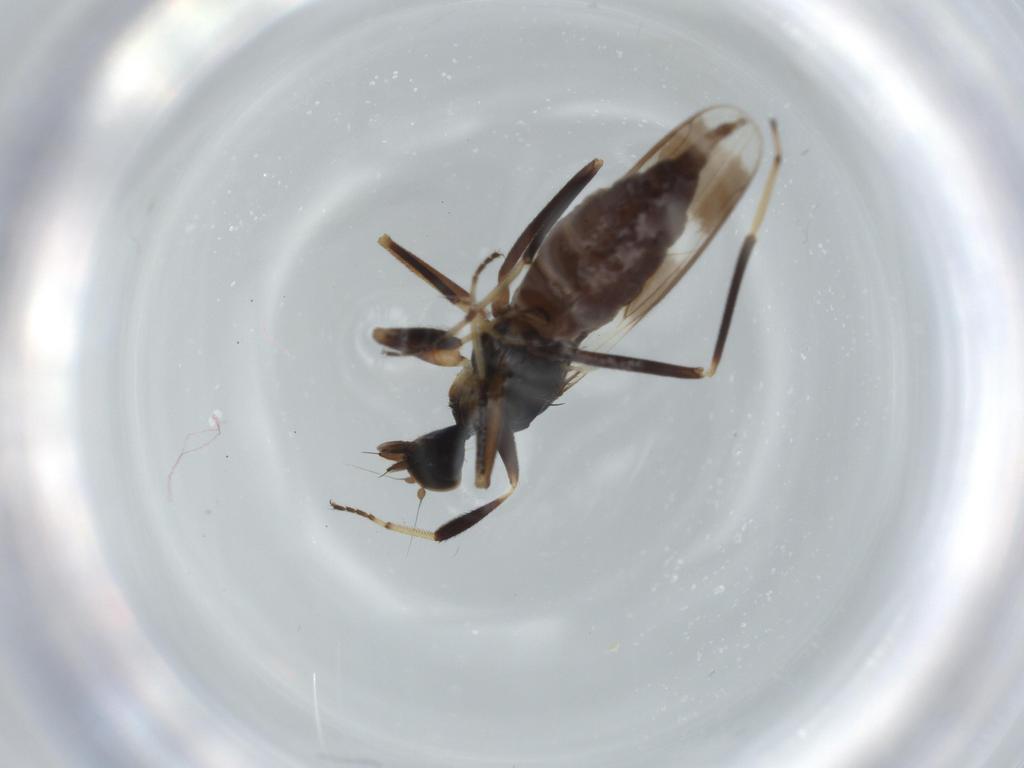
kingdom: Animalia
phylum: Arthropoda
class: Insecta
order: Diptera
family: Hybotidae
